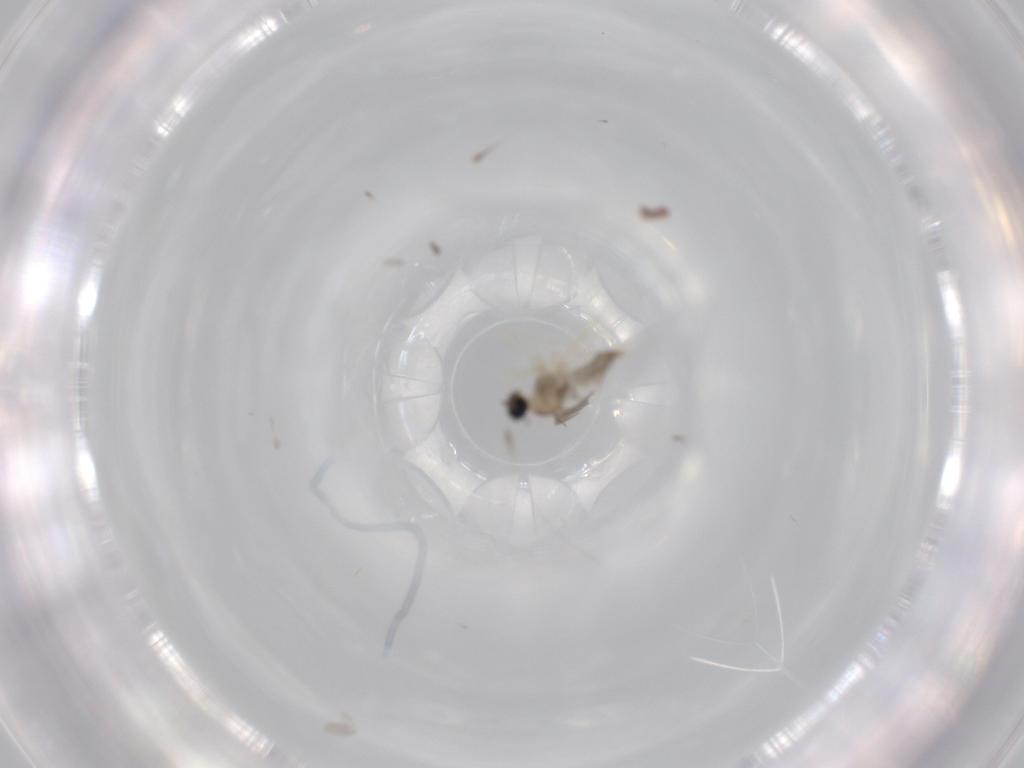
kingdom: Animalia
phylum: Arthropoda
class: Insecta
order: Diptera
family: Cecidomyiidae
